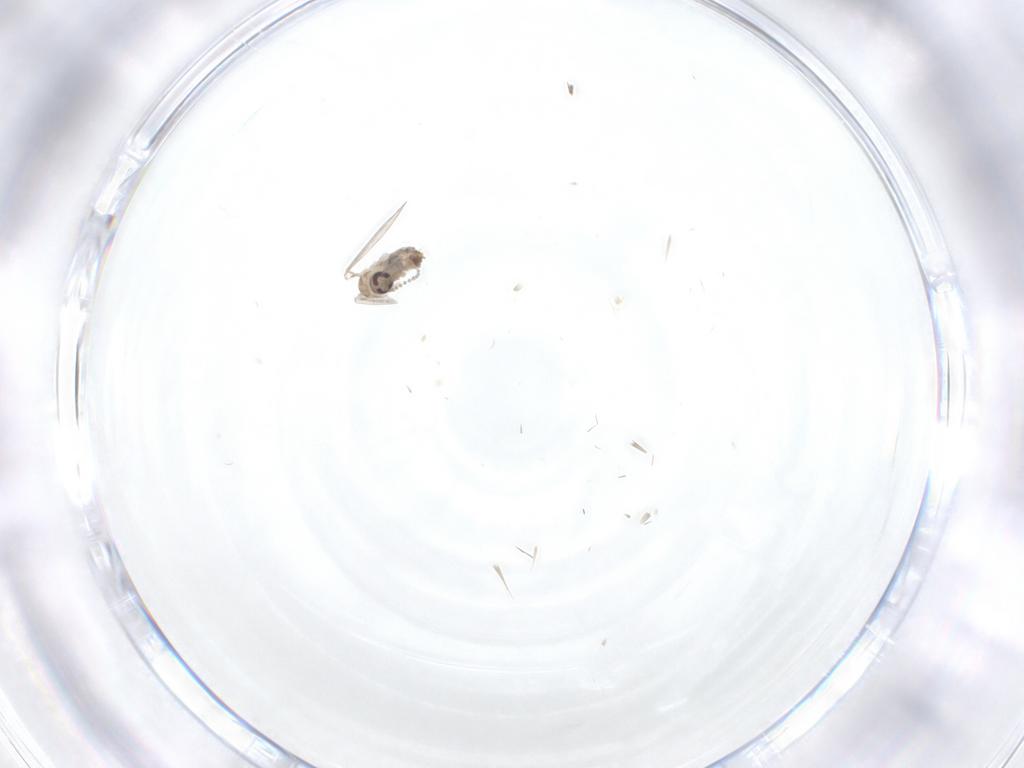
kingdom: Animalia
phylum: Arthropoda
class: Insecta
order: Diptera
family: Psychodidae
